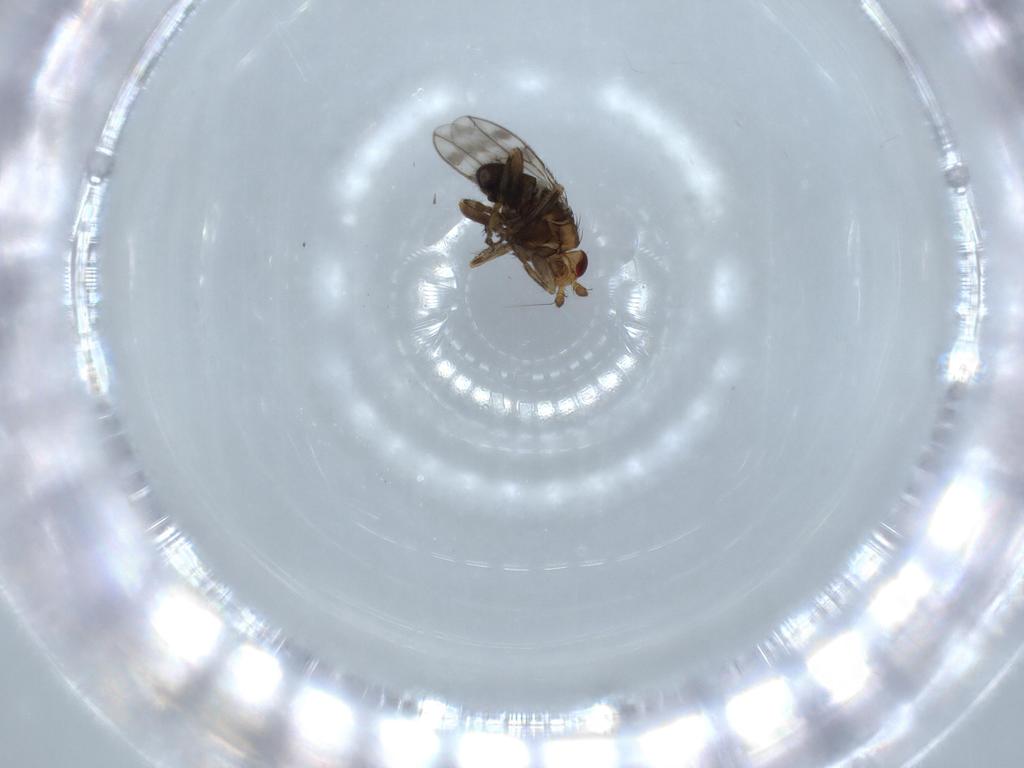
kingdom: Animalia
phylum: Arthropoda
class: Insecta
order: Diptera
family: Sphaeroceridae
